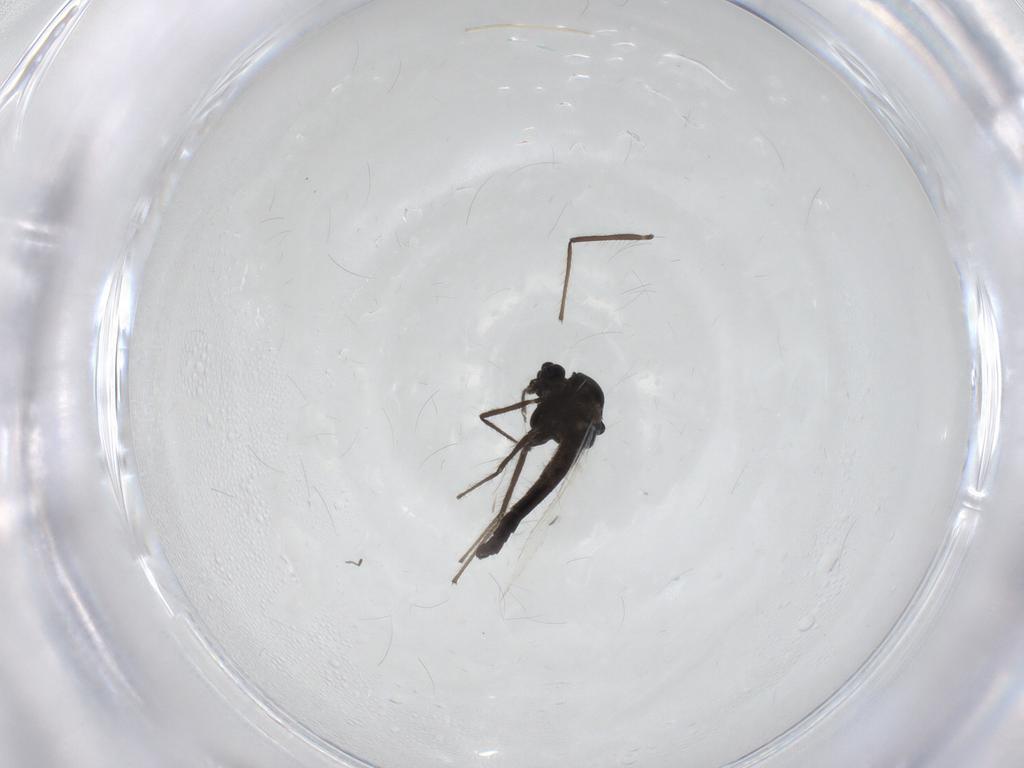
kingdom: Animalia
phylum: Arthropoda
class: Insecta
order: Diptera
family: Chironomidae
